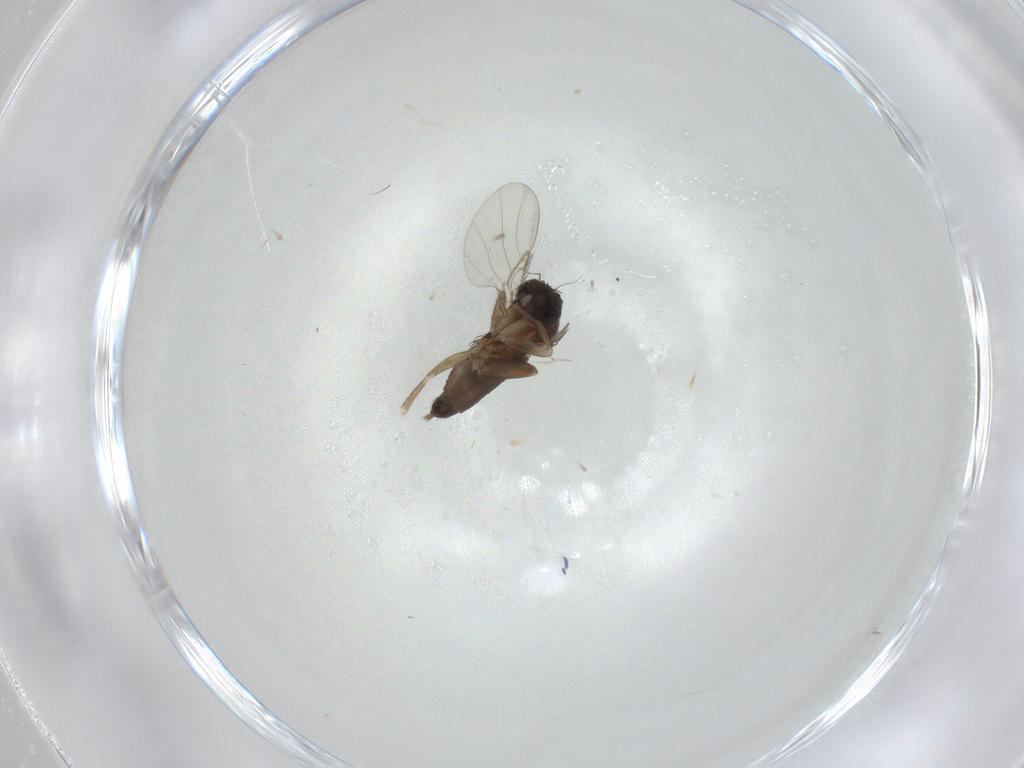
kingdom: Animalia
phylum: Arthropoda
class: Insecta
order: Diptera
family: Phoridae
